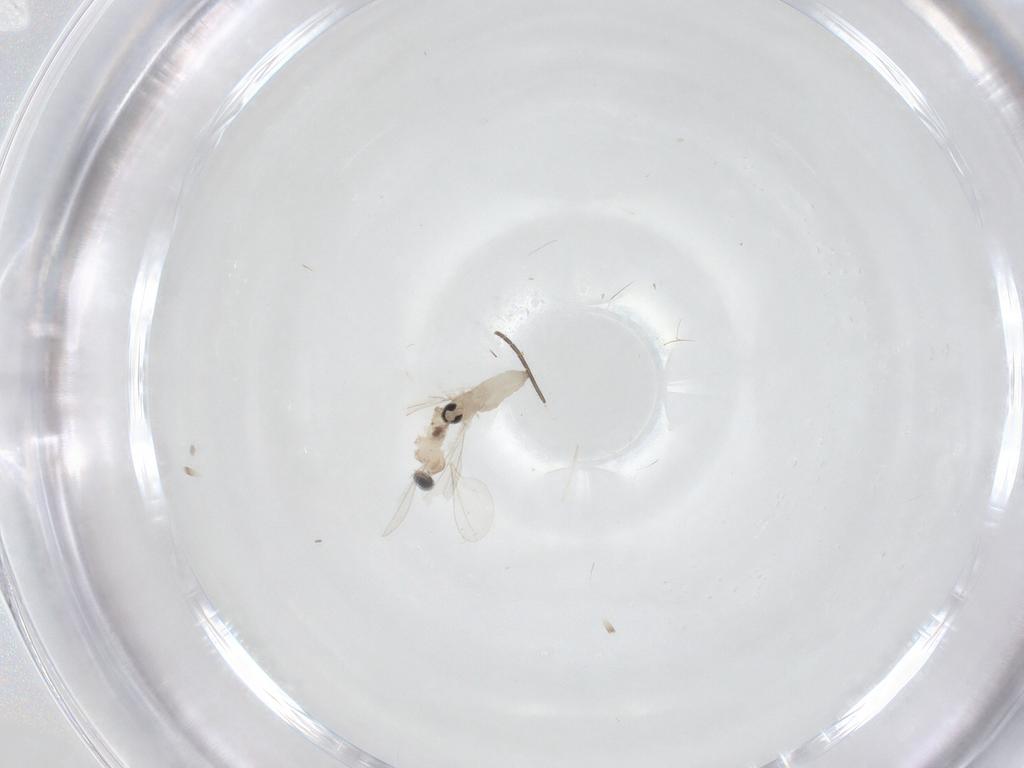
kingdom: Animalia
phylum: Arthropoda
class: Insecta
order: Diptera
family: Cecidomyiidae
